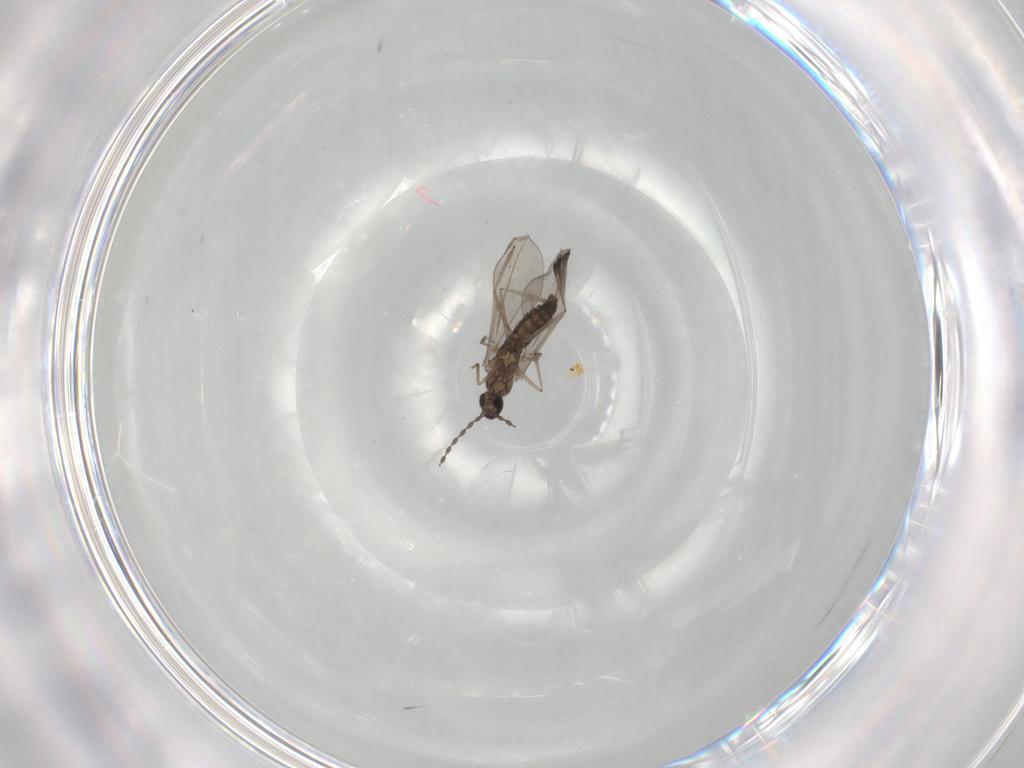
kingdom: Animalia
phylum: Arthropoda
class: Insecta
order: Diptera
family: Cecidomyiidae
